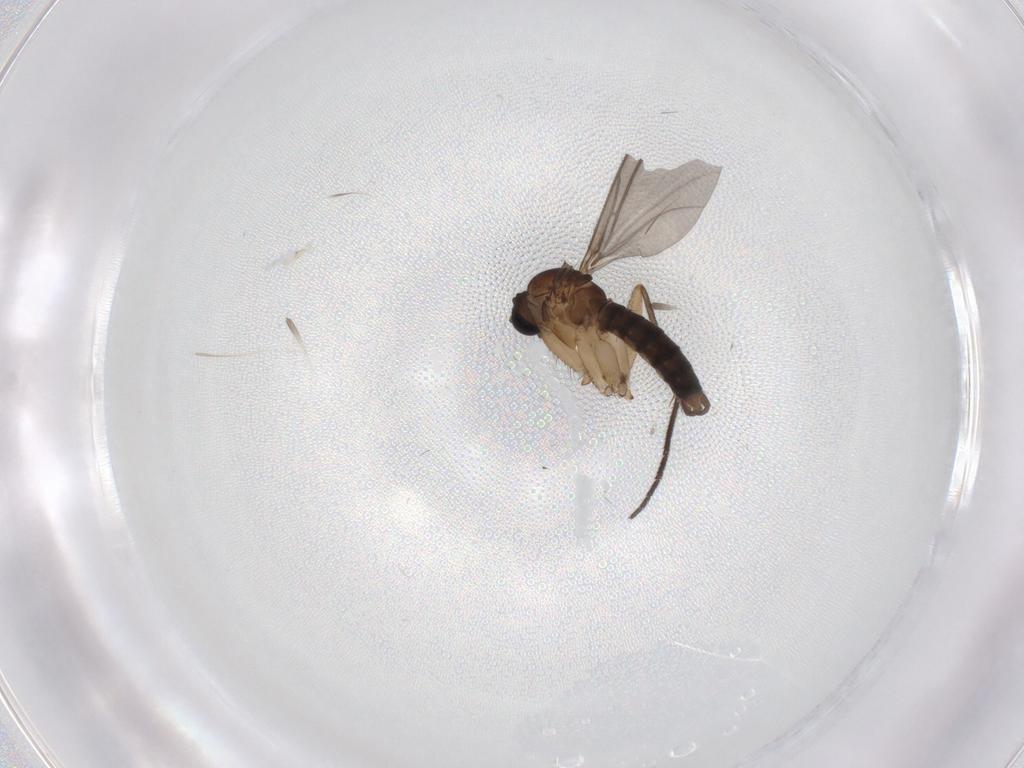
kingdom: Animalia
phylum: Arthropoda
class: Insecta
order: Diptera
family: Sciaridae
